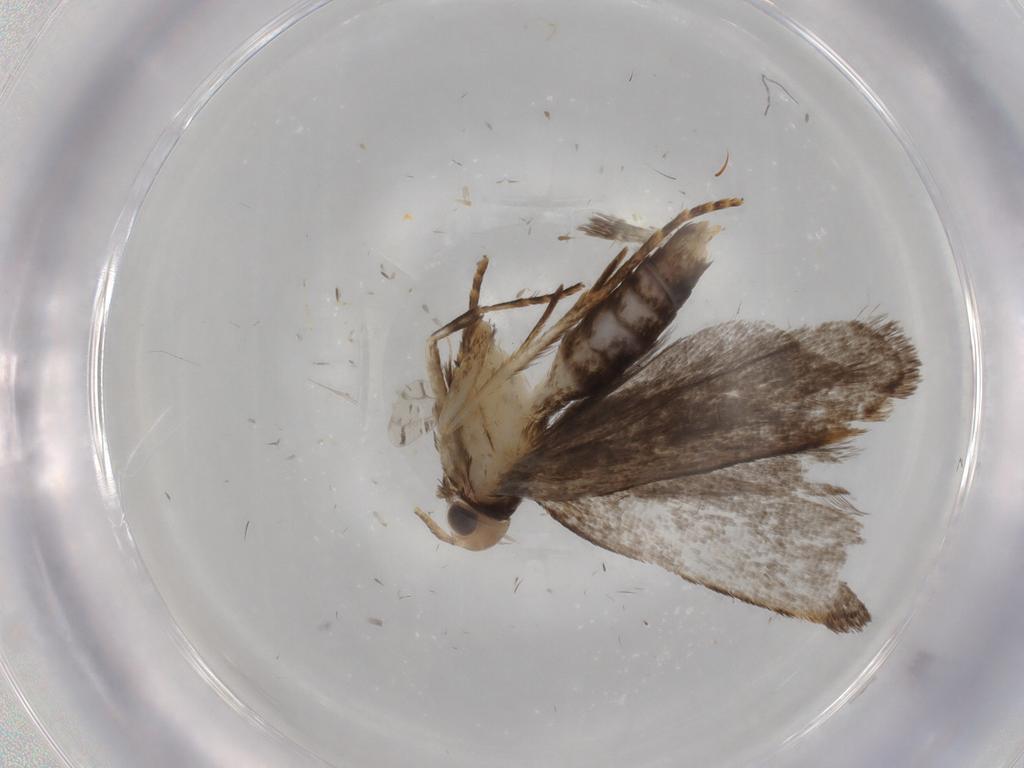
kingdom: Animalia
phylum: Arthropoda
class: Insecta
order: Lepidoptera
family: Gelechiidae
